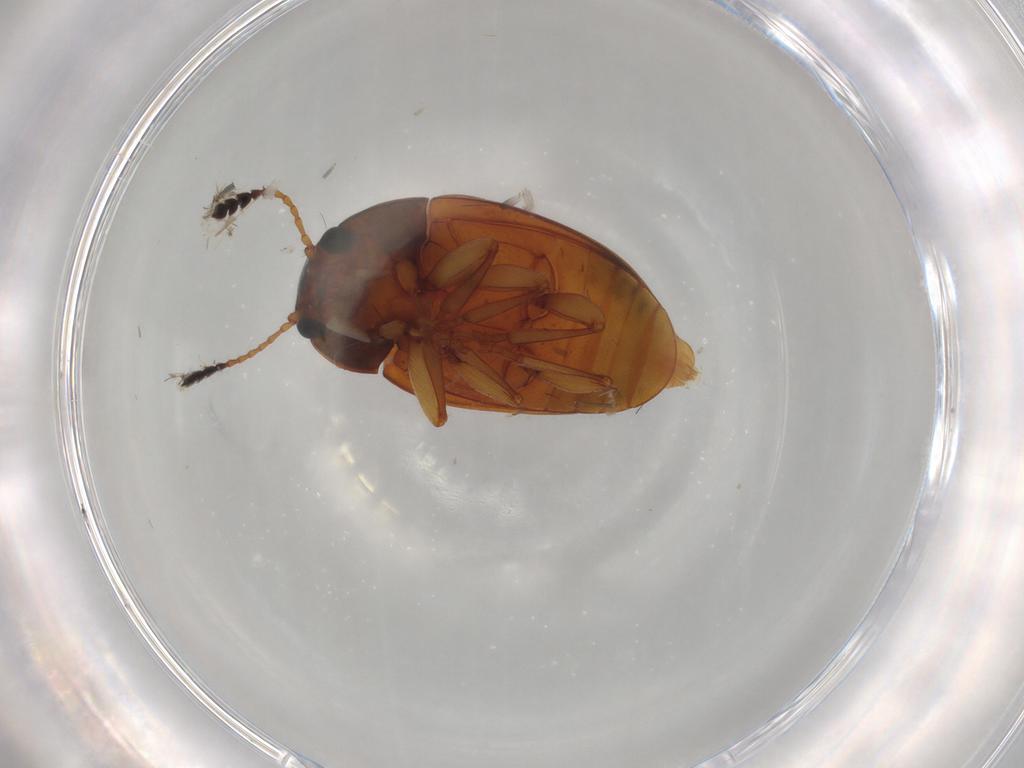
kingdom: Animalia
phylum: Arthropoda
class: Insecta
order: Coleoptera
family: Erotylidae
